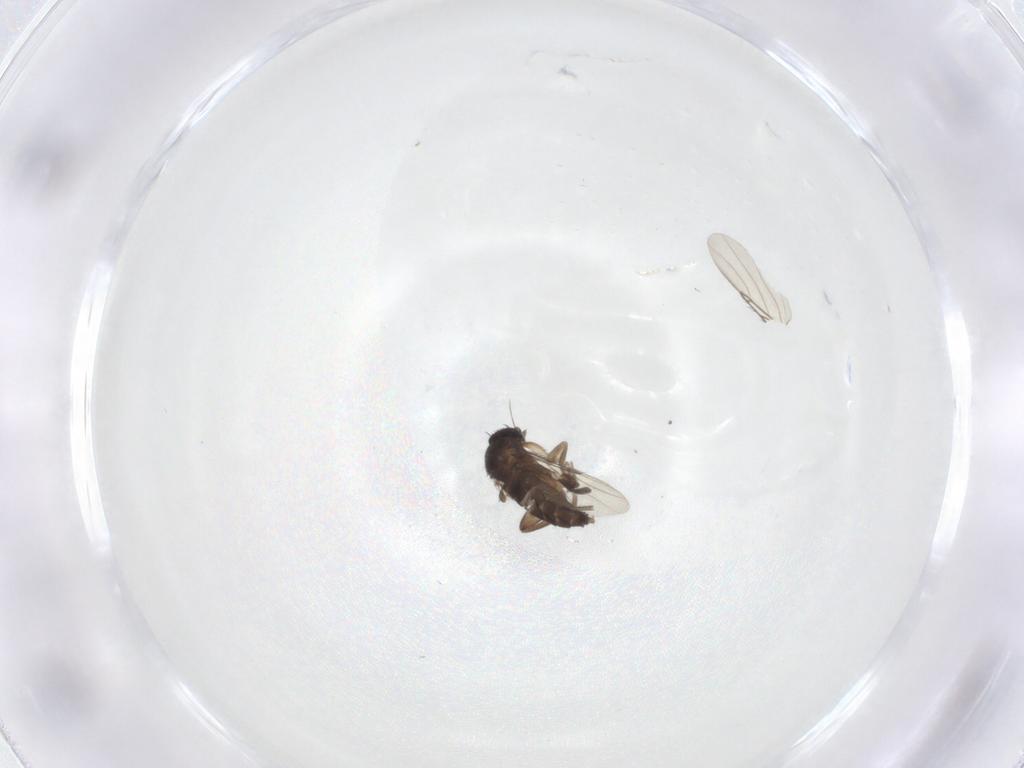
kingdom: Animalia
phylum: Arthropoda
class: Insecta
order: Diptera
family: Phoridae
